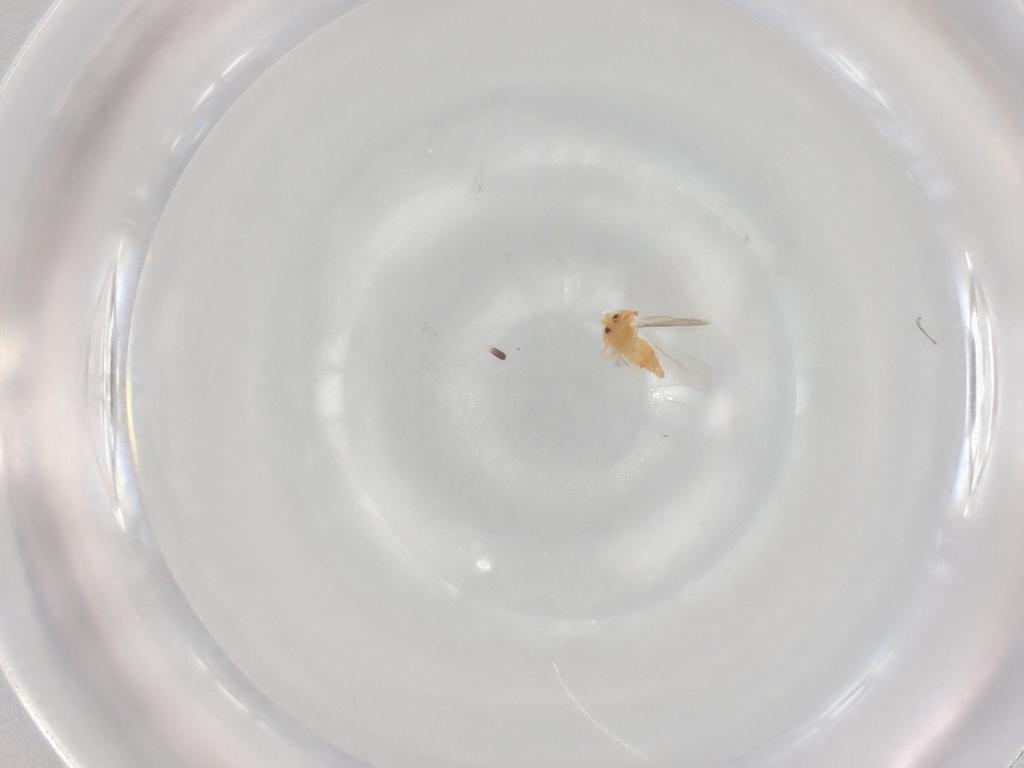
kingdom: Animalia
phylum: Arthropoda
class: Insecta
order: Hemiptera
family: Aleyrodidae
